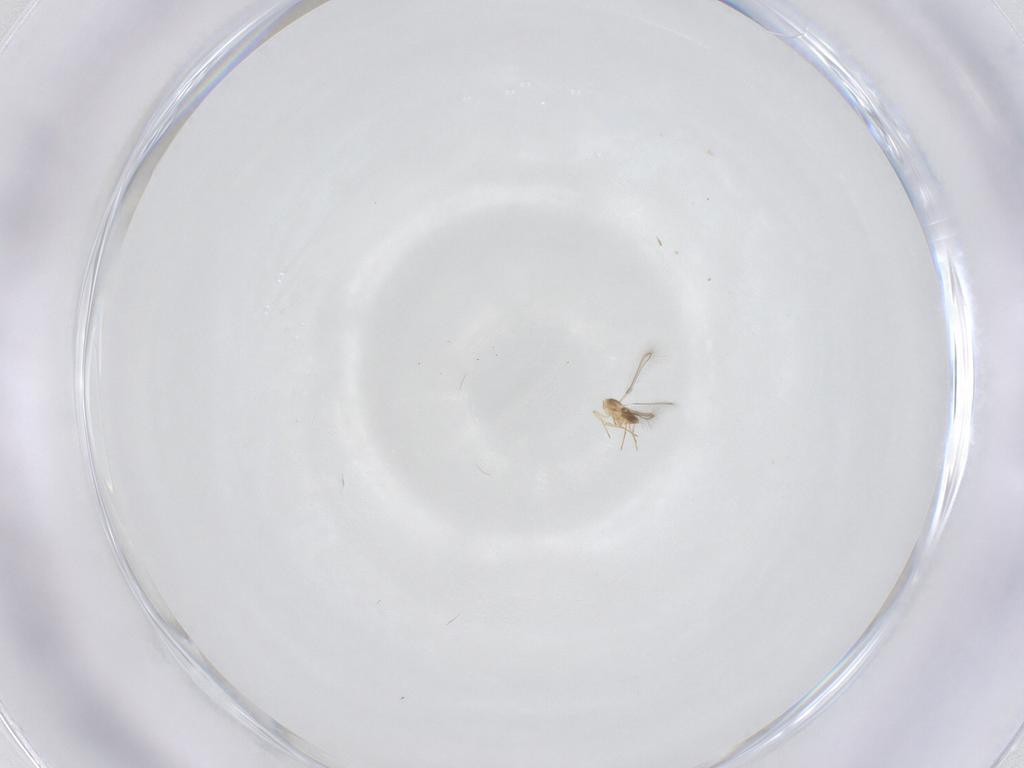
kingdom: Animalia
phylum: Arthropoda
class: Insecta
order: Hymenoptera
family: Mymaridae
